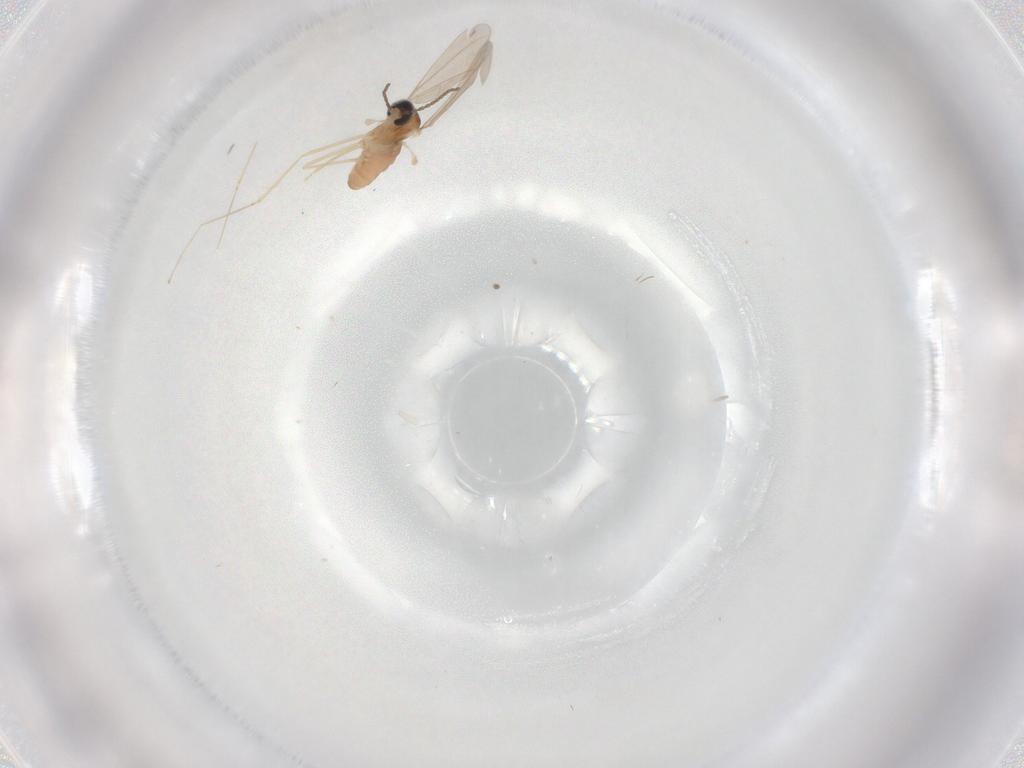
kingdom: Animalia
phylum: Arthropoda
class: Insecta
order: Diptera
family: Cecidomyiidae
